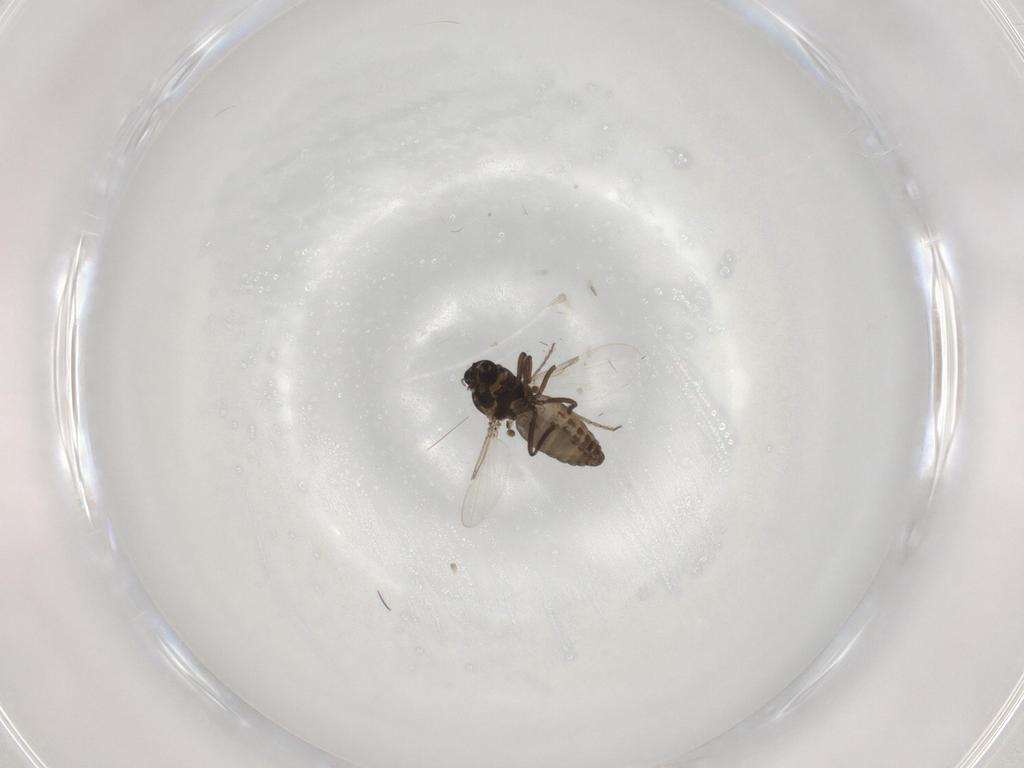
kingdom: Animalia
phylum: Arthropoda
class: Insecta
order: Diptera
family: Ceratopogonidae
